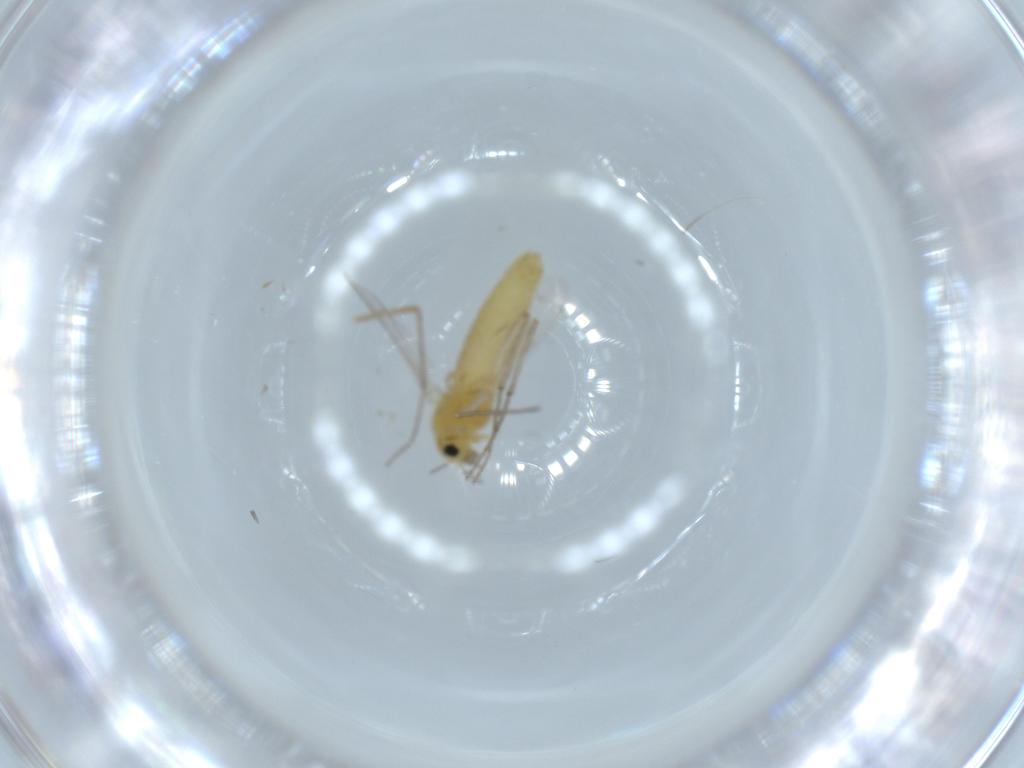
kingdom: Animalia
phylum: Arthropoda
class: Insecta
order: Diptera
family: Chironomidae
